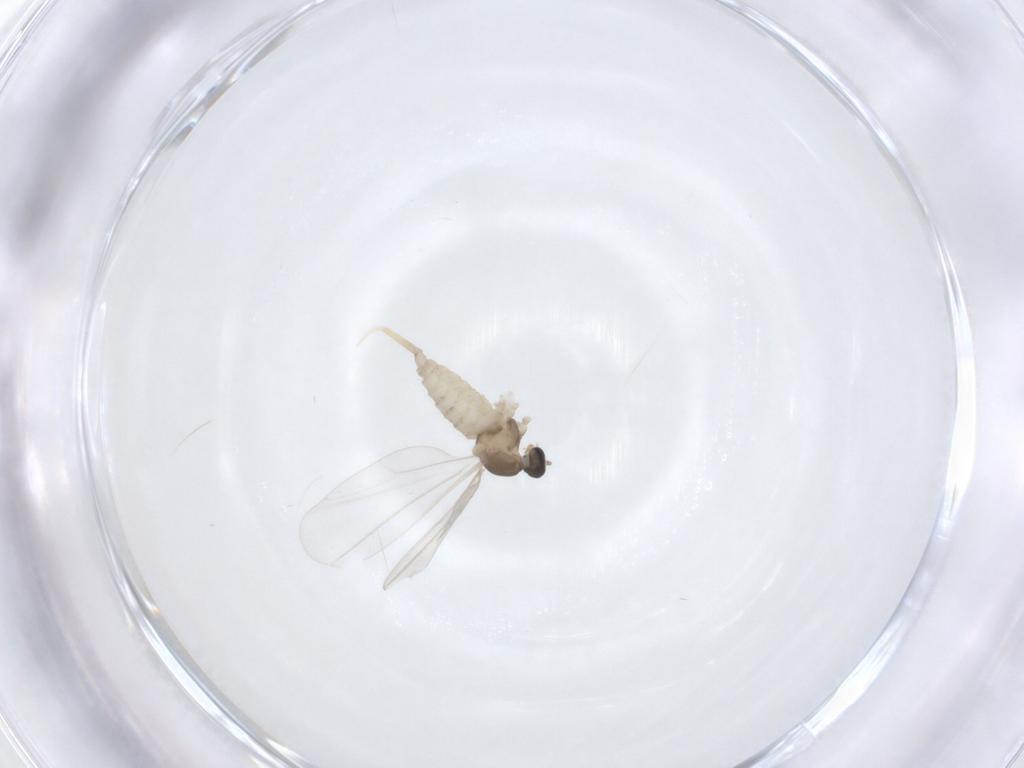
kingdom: Animalia
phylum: Arthropoda
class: Insecta
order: Diptera
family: Cecidomyiidae
